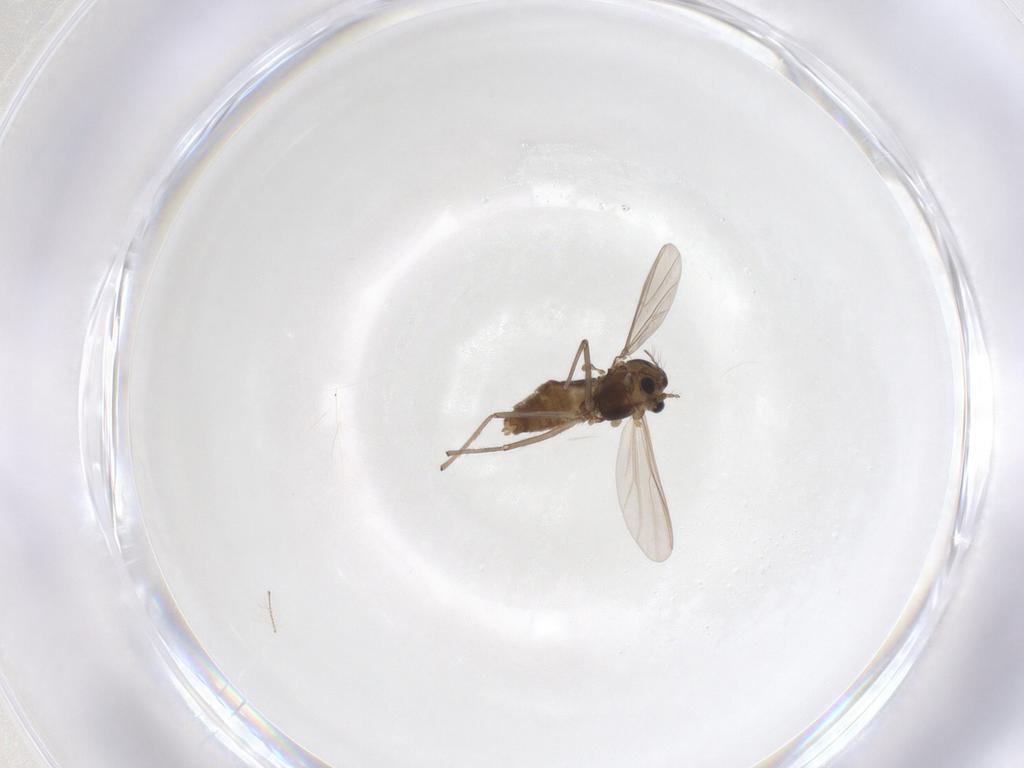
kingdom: Animalia
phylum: Arthropoda
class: Insecta
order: Diptera
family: Chironomidae
